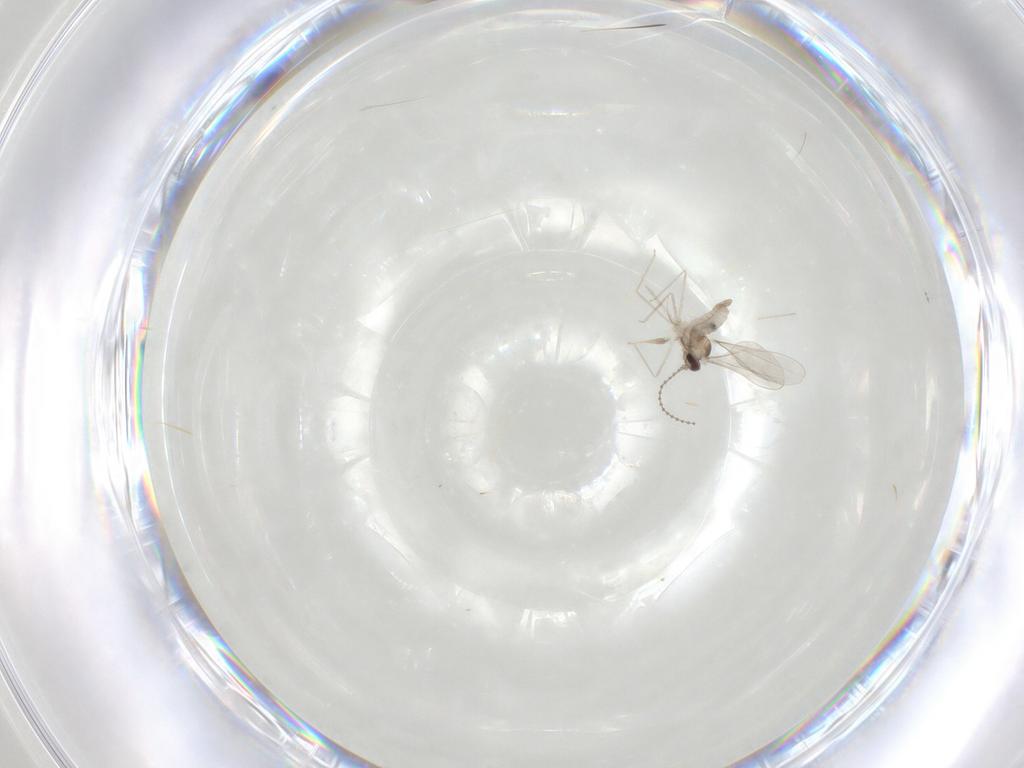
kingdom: Animalia
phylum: Arthropoda
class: Insecta
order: Diptera
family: Cecidomyiidae
